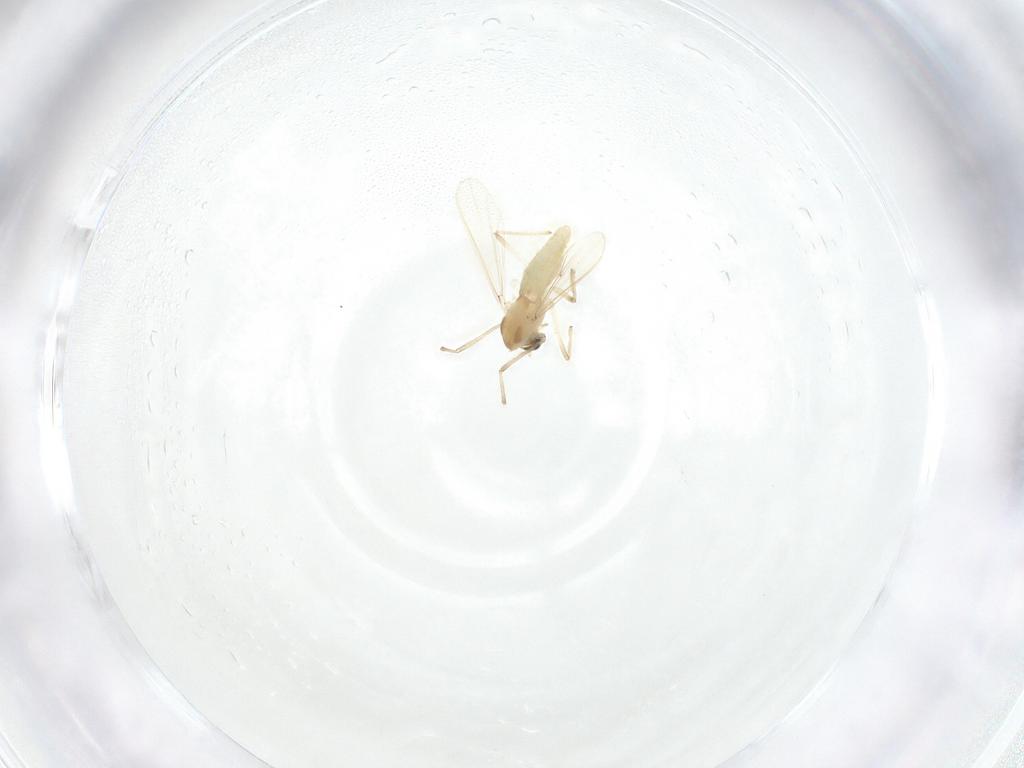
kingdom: Animalia
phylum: Arthropoda
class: Insecta
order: Diptera
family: Chironomidae
